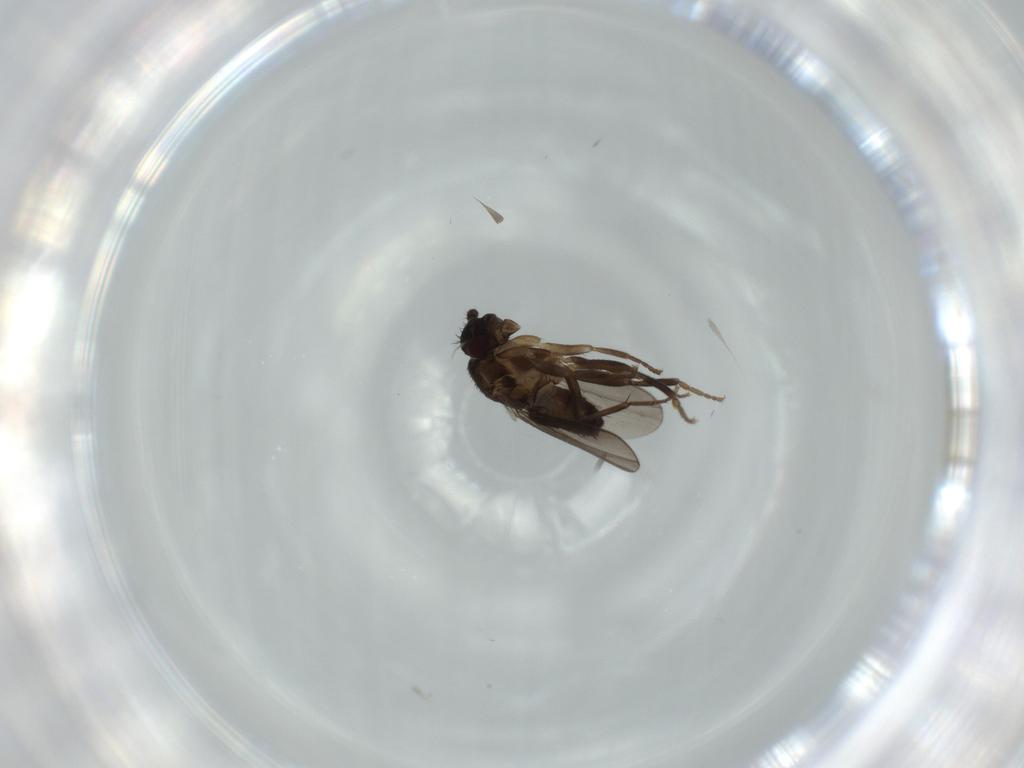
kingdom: Animalia
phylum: Arthropoda
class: Insecta
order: Diptera
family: Sphaeroceridae
